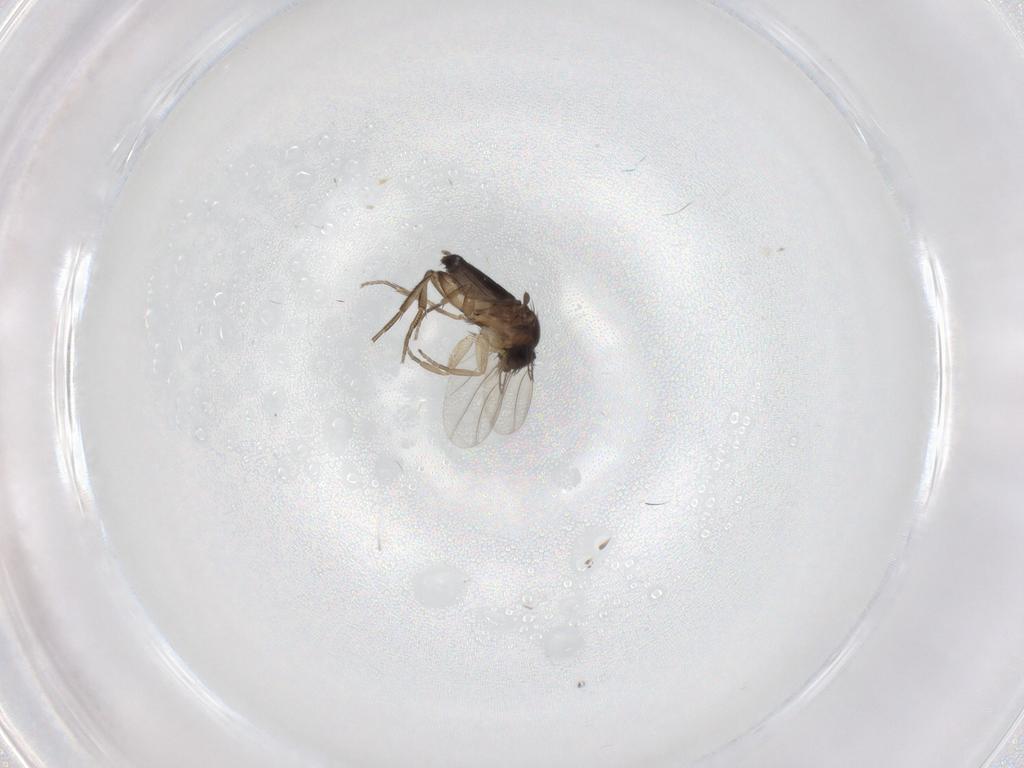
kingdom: Animalia
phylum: Arthropoda
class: Insecta
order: Diptera
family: Phoridae
